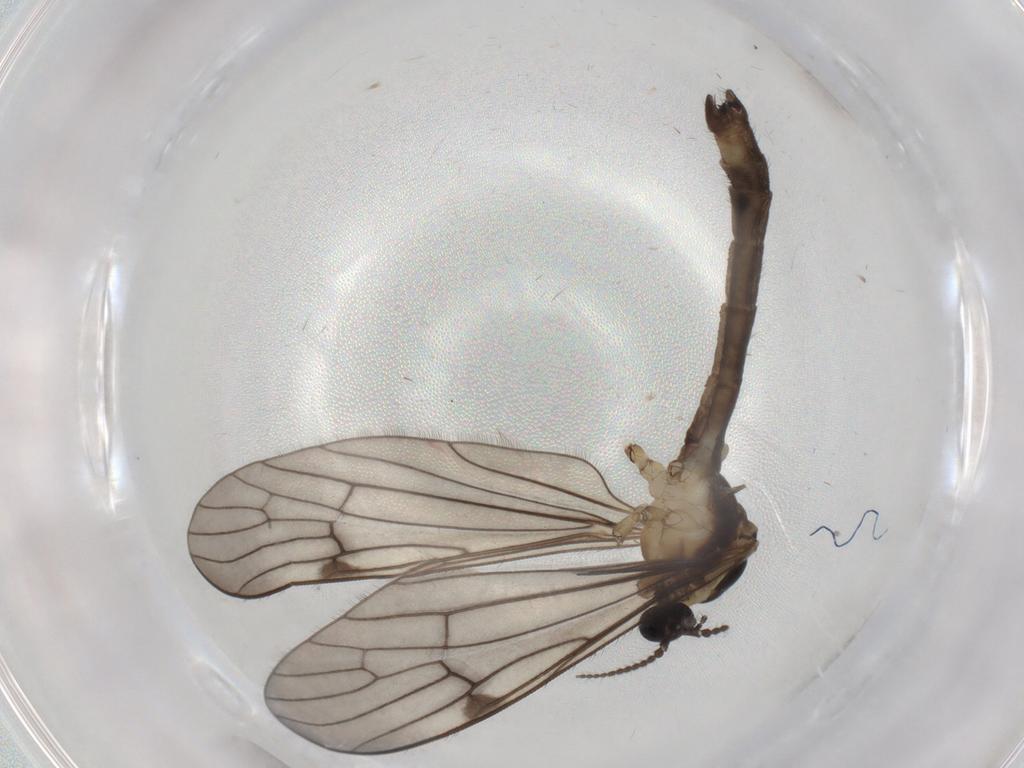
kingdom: Animalia
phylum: Arthropoda
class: Insecta
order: Diptera
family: Limoniidae
